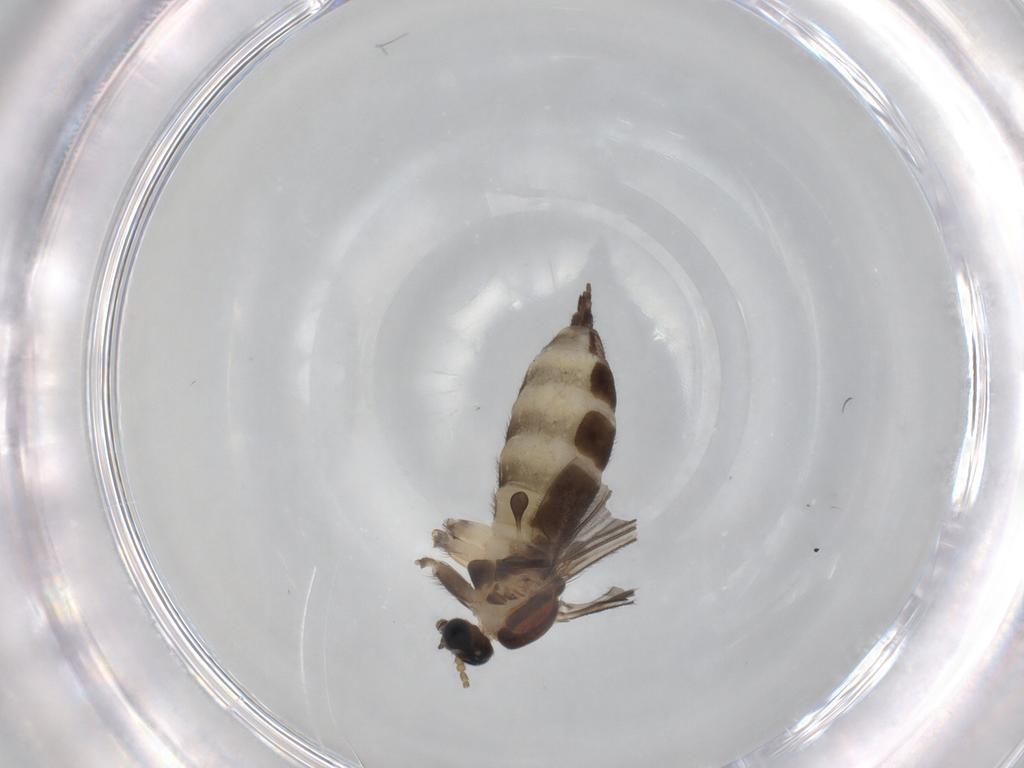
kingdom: Animalia
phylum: Arthropoda
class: Insecta
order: Diptera
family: Sciaridae
